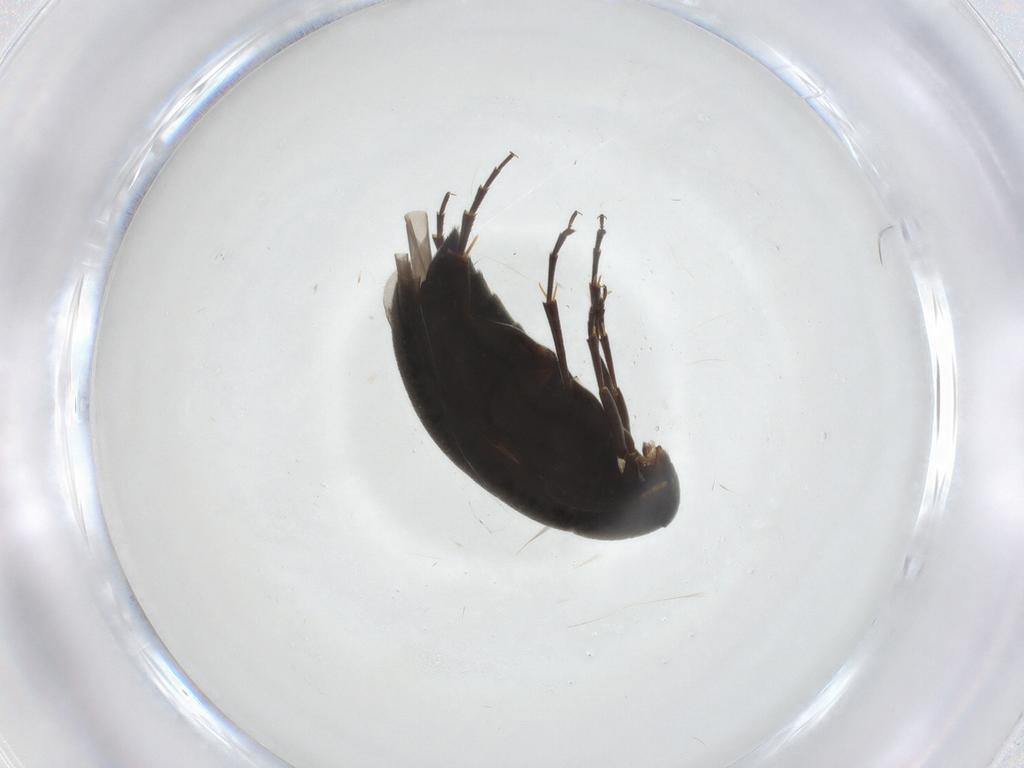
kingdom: Animalia
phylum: Arthropoda
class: Insecta
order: Coleoptera
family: Scraptiidae
